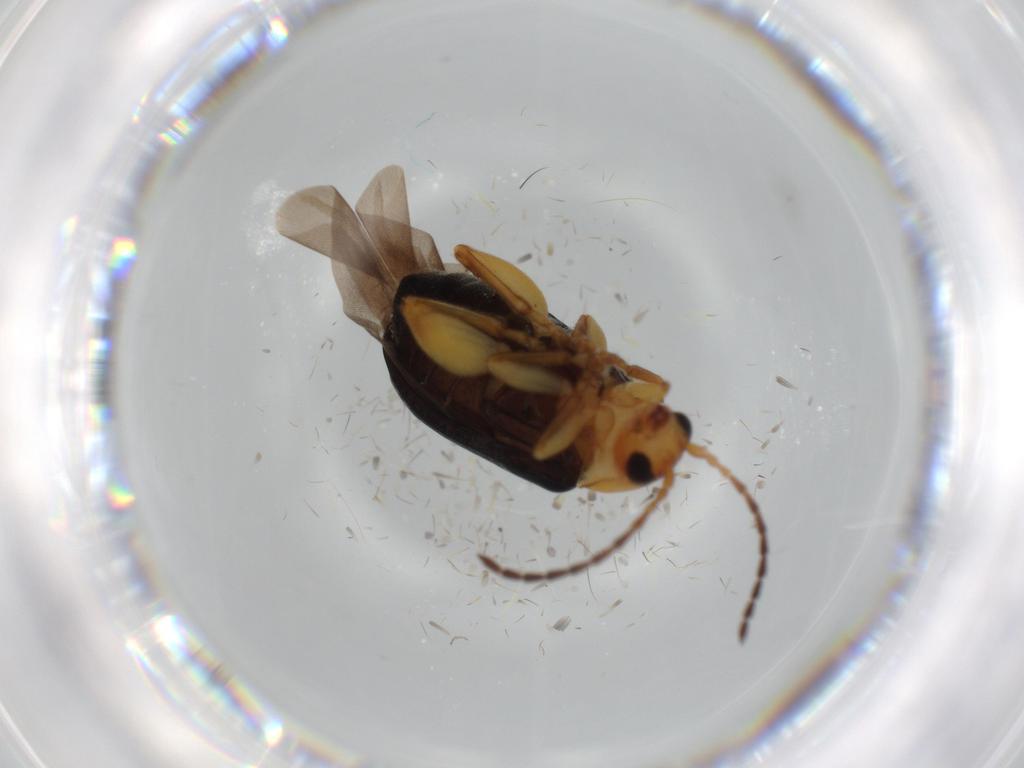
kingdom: Animalia
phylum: Arthropoda
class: Insecta
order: Coleoptera
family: Chrysomelidae
